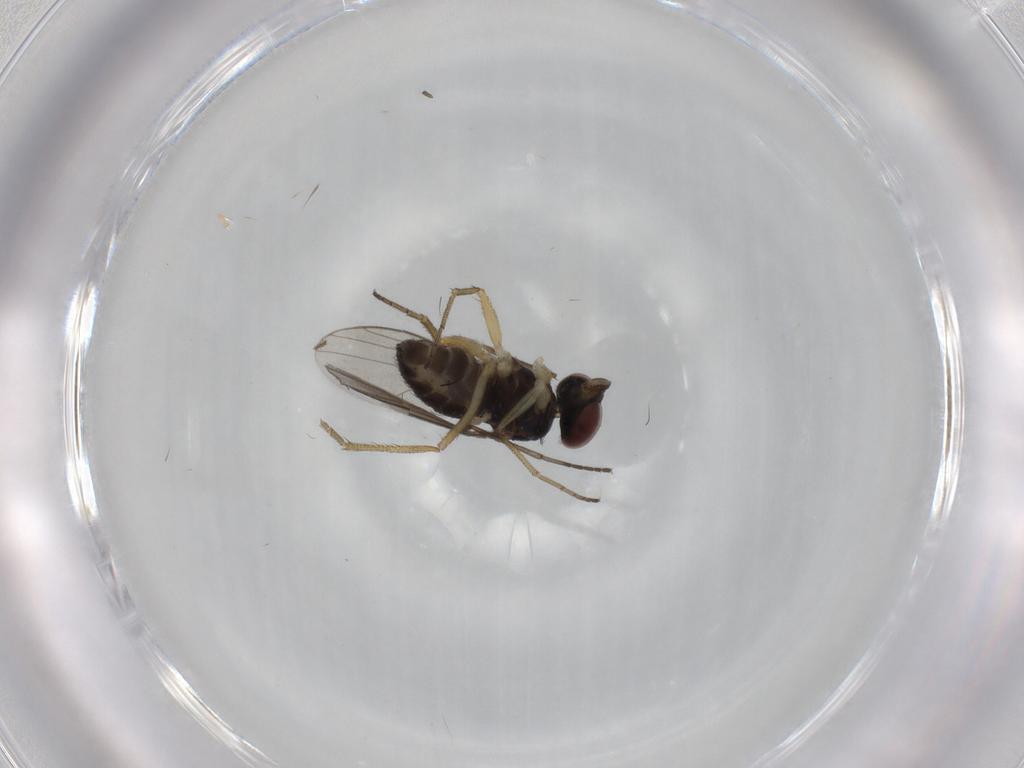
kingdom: Animalia
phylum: Arthropoda
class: Insecta
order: Diptera
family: Dolichopodidae
